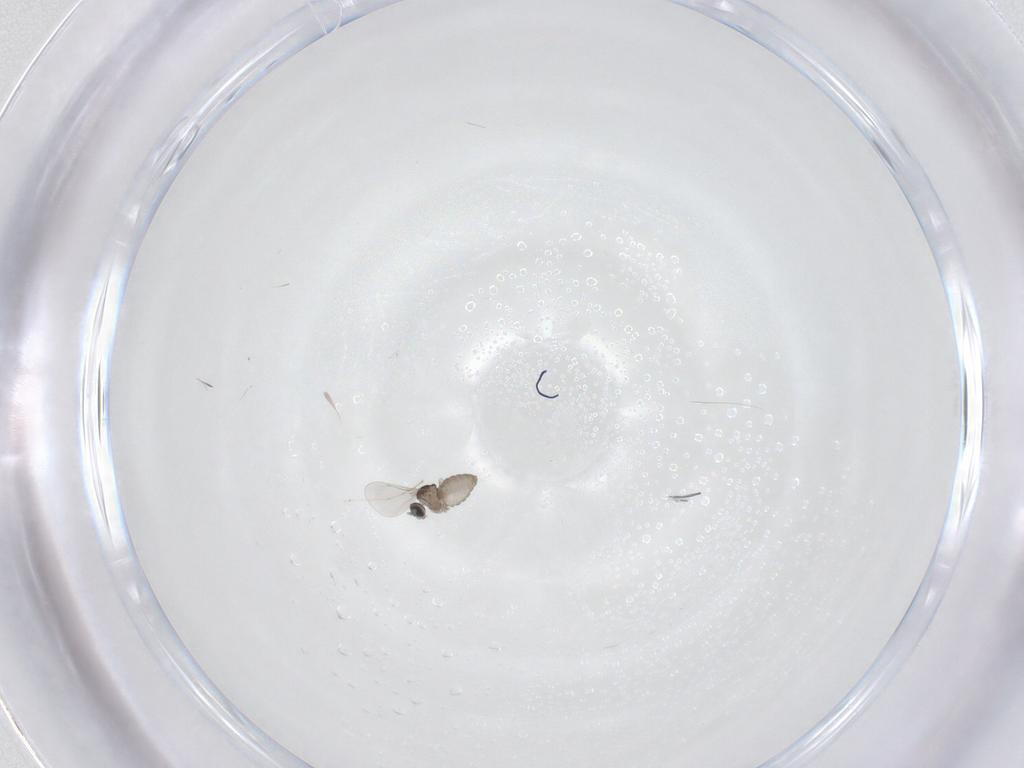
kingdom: Animalia
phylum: Arthropoda
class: Insecta
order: Diptera
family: Cecidomyiidae
